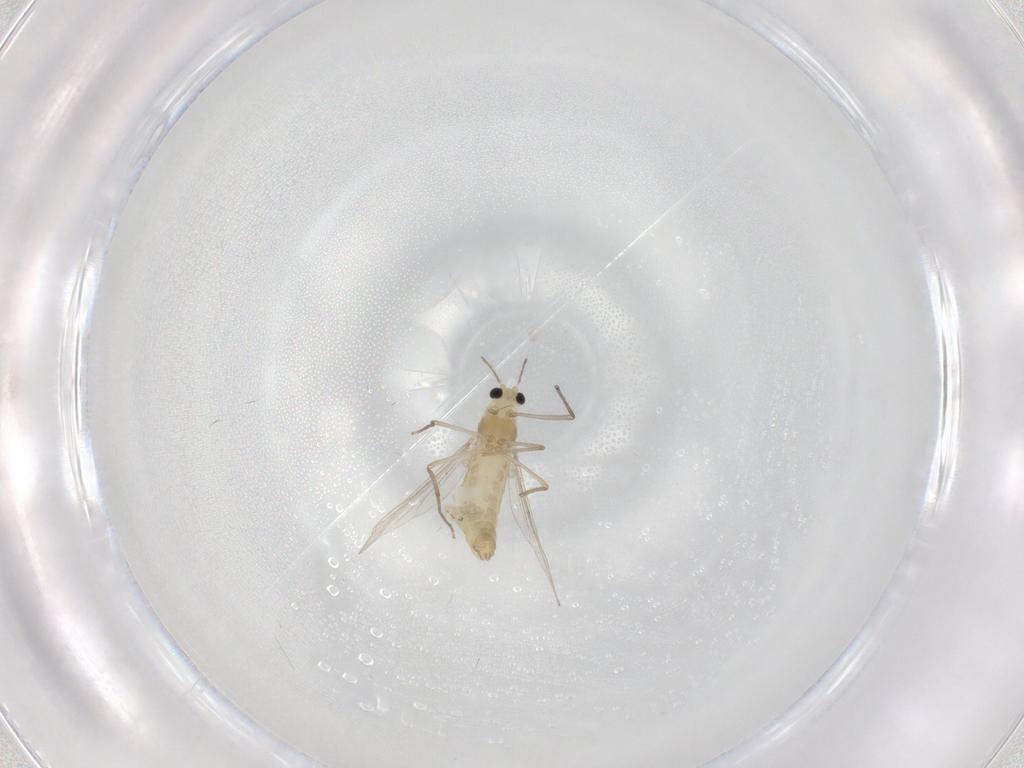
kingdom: Animalia
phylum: Arthropoda
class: Insecta
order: Diptera
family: Chironomidae
